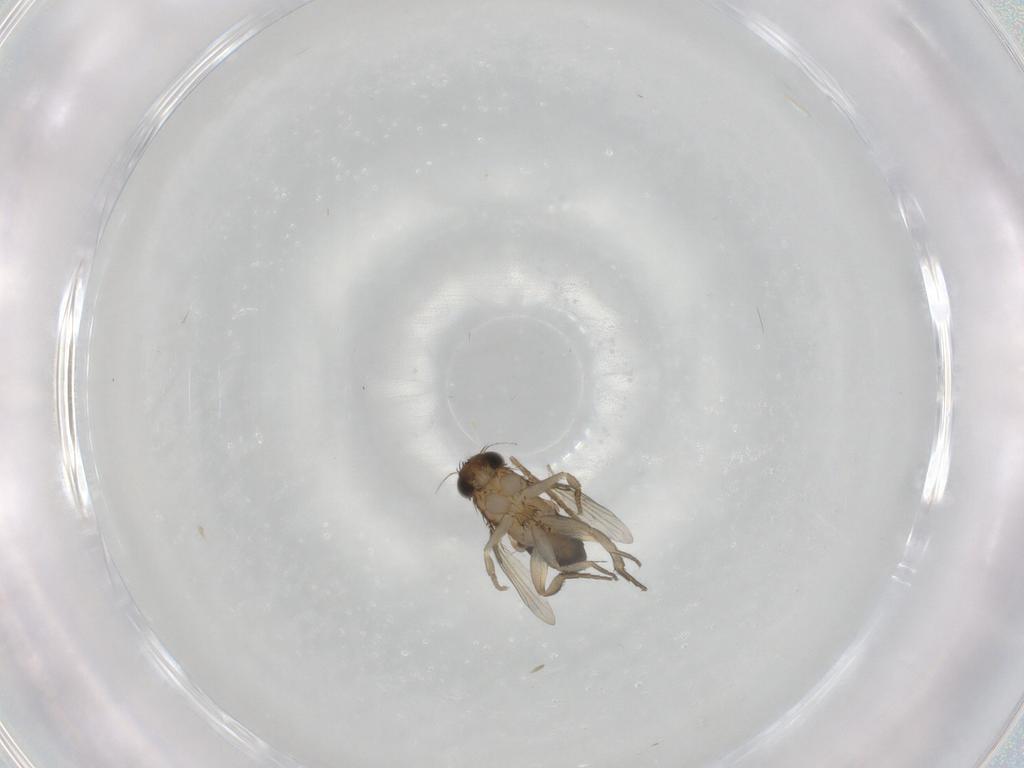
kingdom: Animalia
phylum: Arthropoda
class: Insecta
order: Diptera
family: Phoridae
